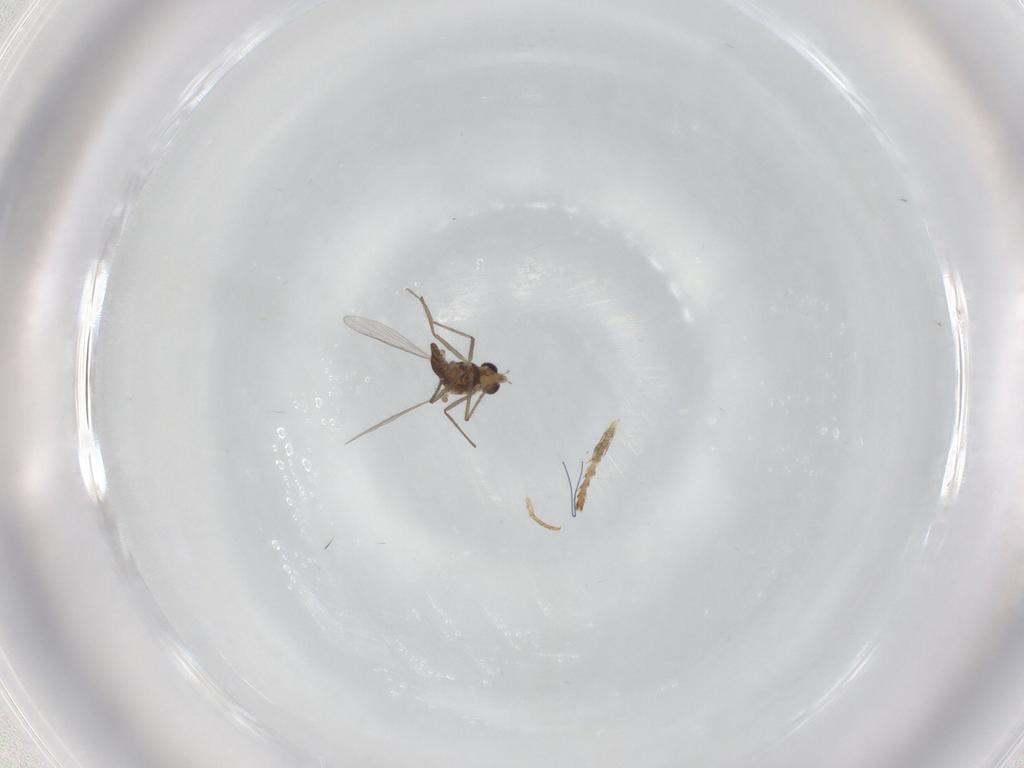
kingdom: Animalia
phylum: Arthropoda
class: Insecta
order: Diptera
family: Psychodidae
